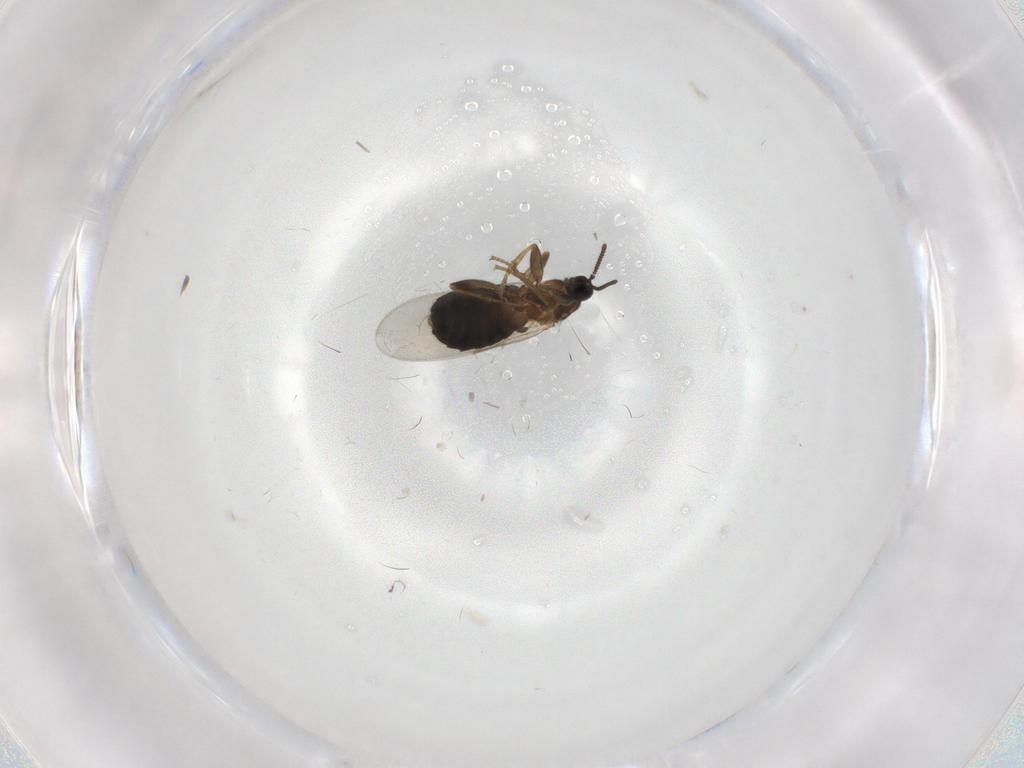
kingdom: Animalia
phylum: Arthropoda
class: Insecta
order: Diptera
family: Scatopsidae
